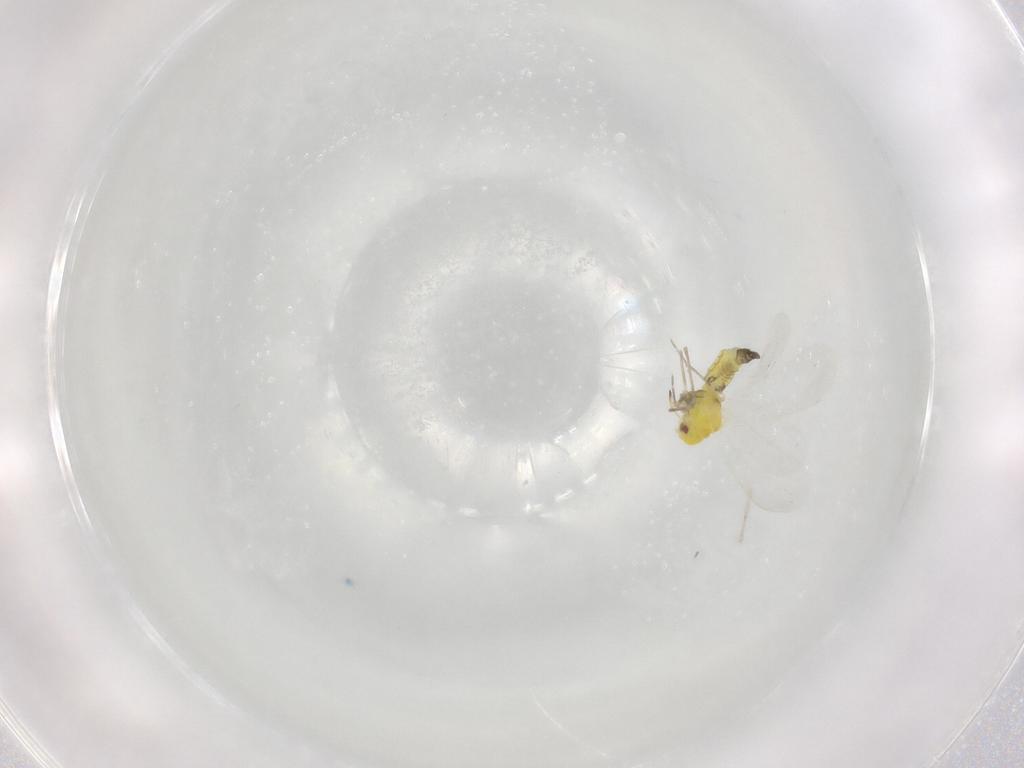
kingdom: Animalia
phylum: Arthropoda
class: Insecta
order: Hemiptera
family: Aleyrodidae
